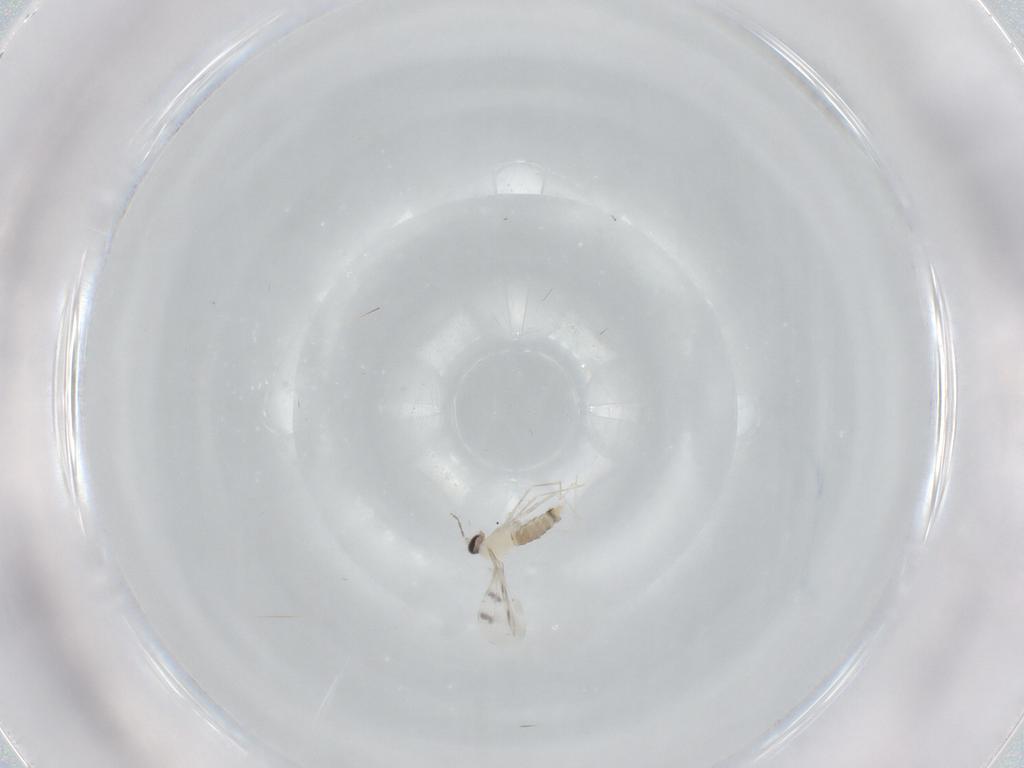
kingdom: Animalia
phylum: Arthropoda
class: Insecta
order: Diptera
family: Cecidomyiidae
